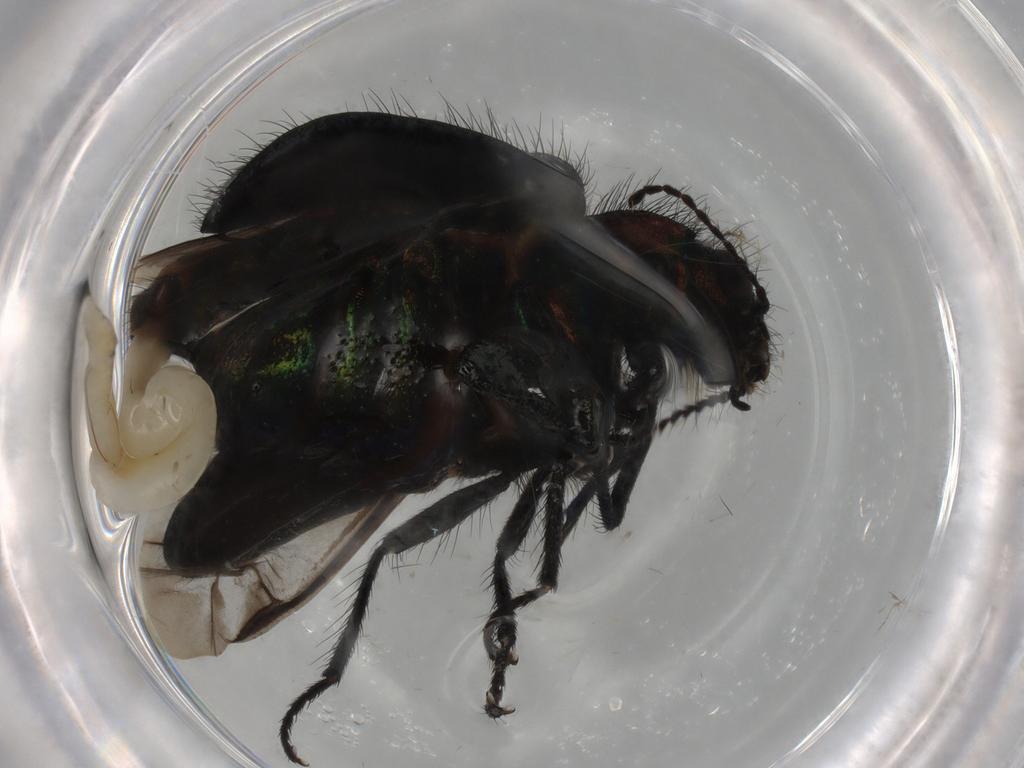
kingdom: Animalia
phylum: Arthropoda
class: Insecta
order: Coleoptera
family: Melyridae
